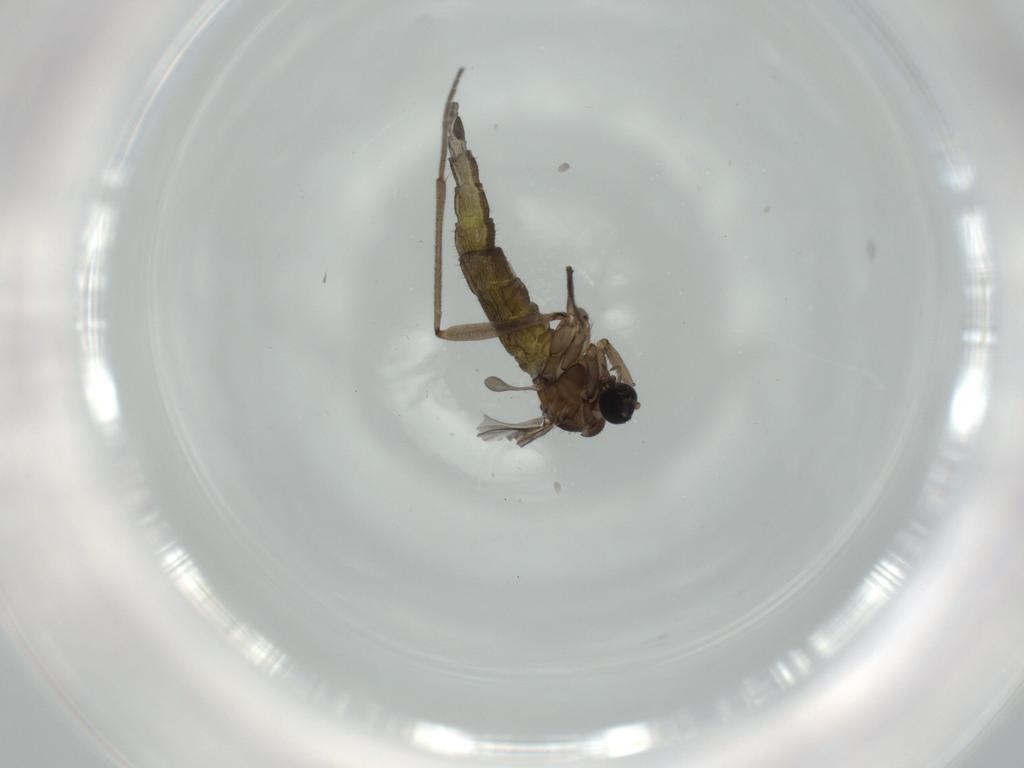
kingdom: Animalia
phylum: Arthropoda
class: Insecta
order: Diptera
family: Sciaridae
